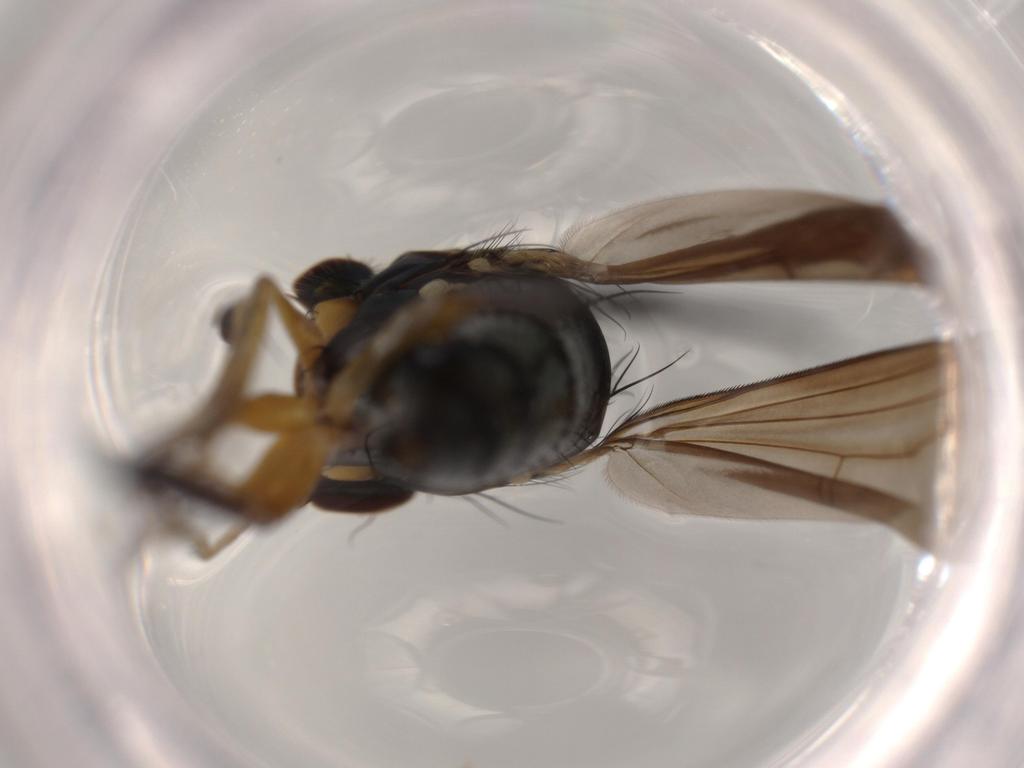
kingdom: Animalia
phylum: Arthropoda
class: Insecta
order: Diptera
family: Dolichopodidae
